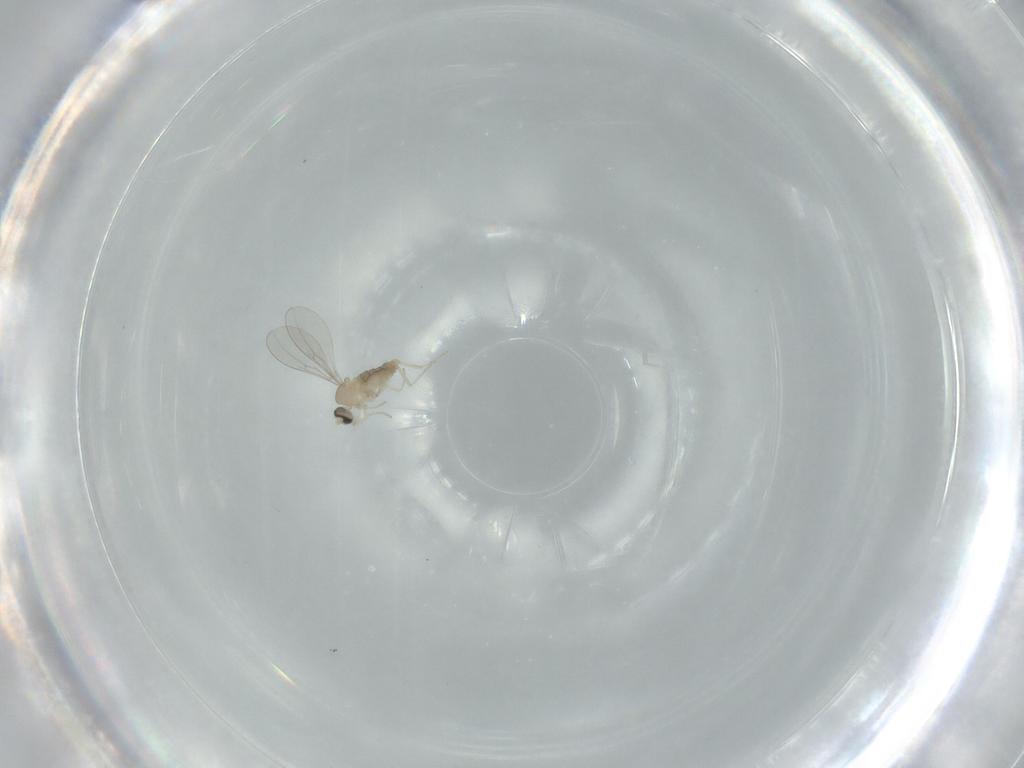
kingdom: Animalia
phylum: Arthropoda
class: Insecta
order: Diptera
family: Cecidomyiidae
